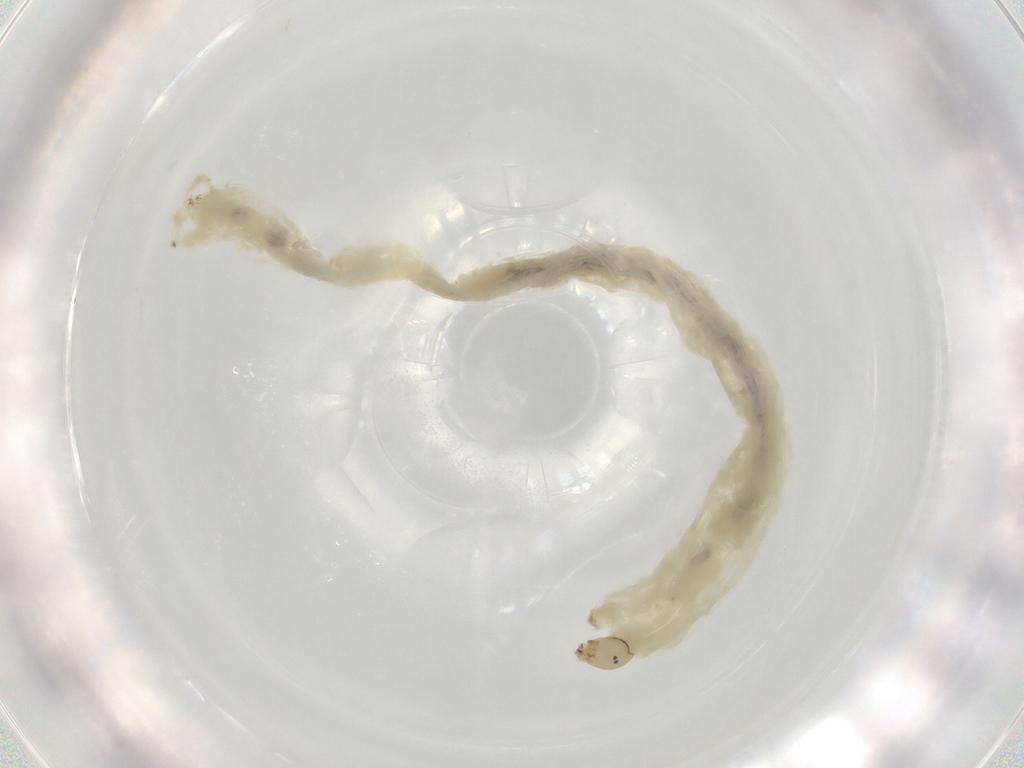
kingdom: Animalia
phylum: Arthropoda
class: Insecta
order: Diptera
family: Chironomidae
